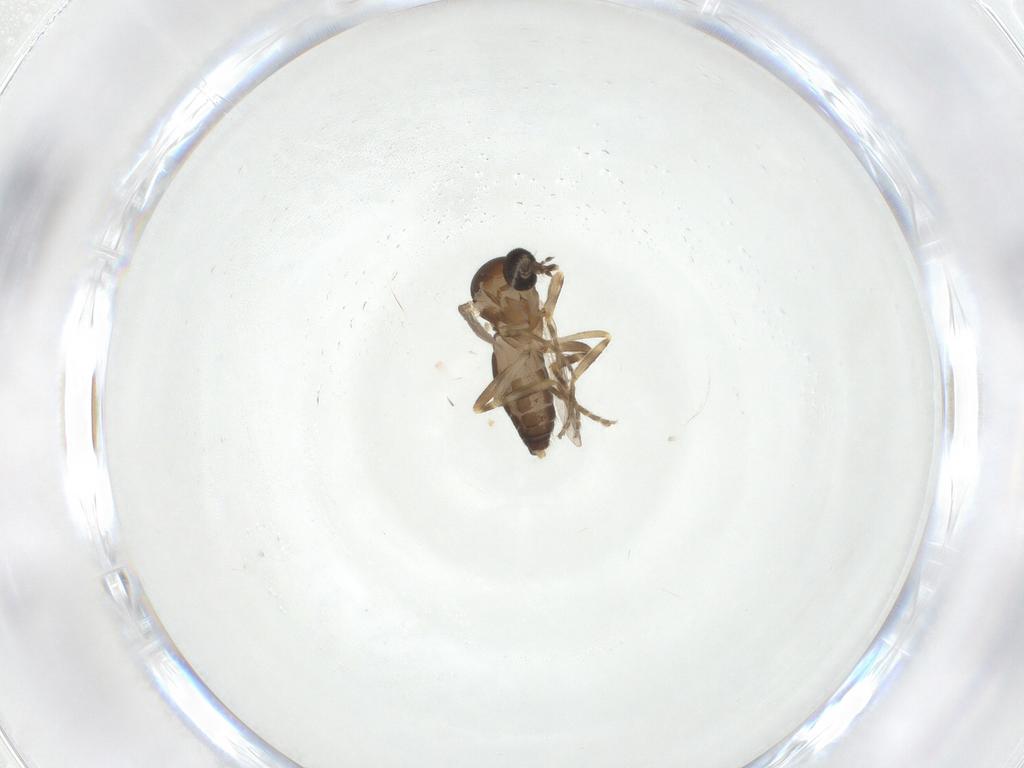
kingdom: Animalia
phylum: Arthropoda
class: Insecta
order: Diptera
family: Ceratopogonidae
